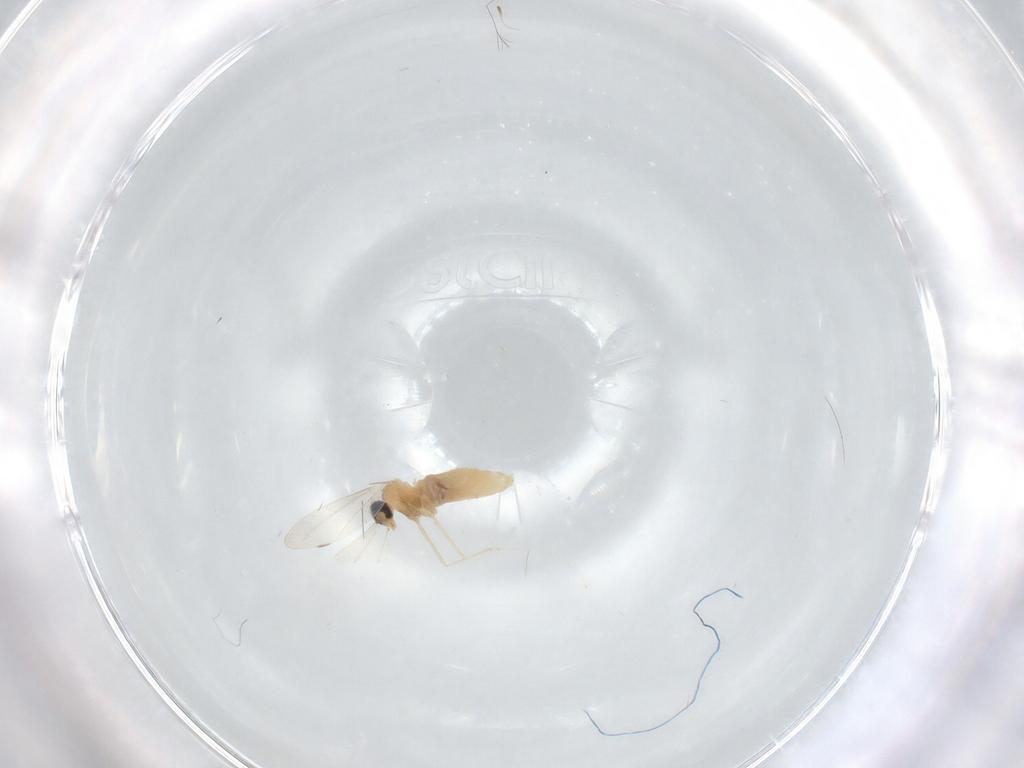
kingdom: Animalia
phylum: Arthropoda
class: Insecta
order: Diptera
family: Cecidomyiidae
